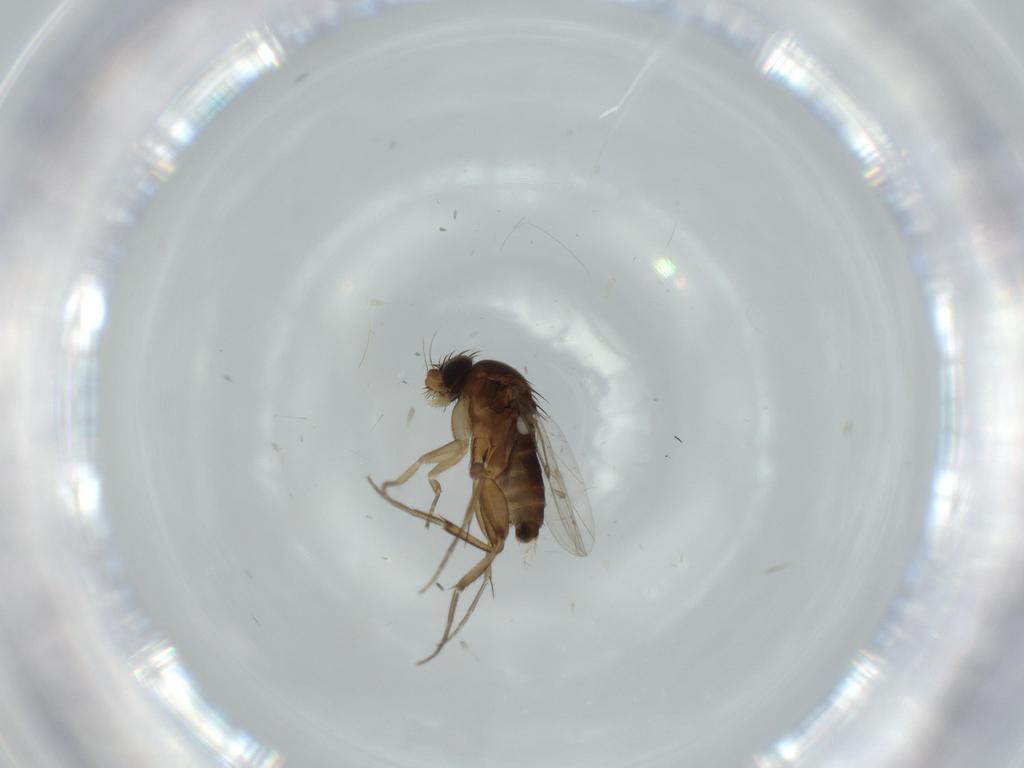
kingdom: Animalia
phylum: Arthropoda
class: Insecta
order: Diptera
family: Phoridae
